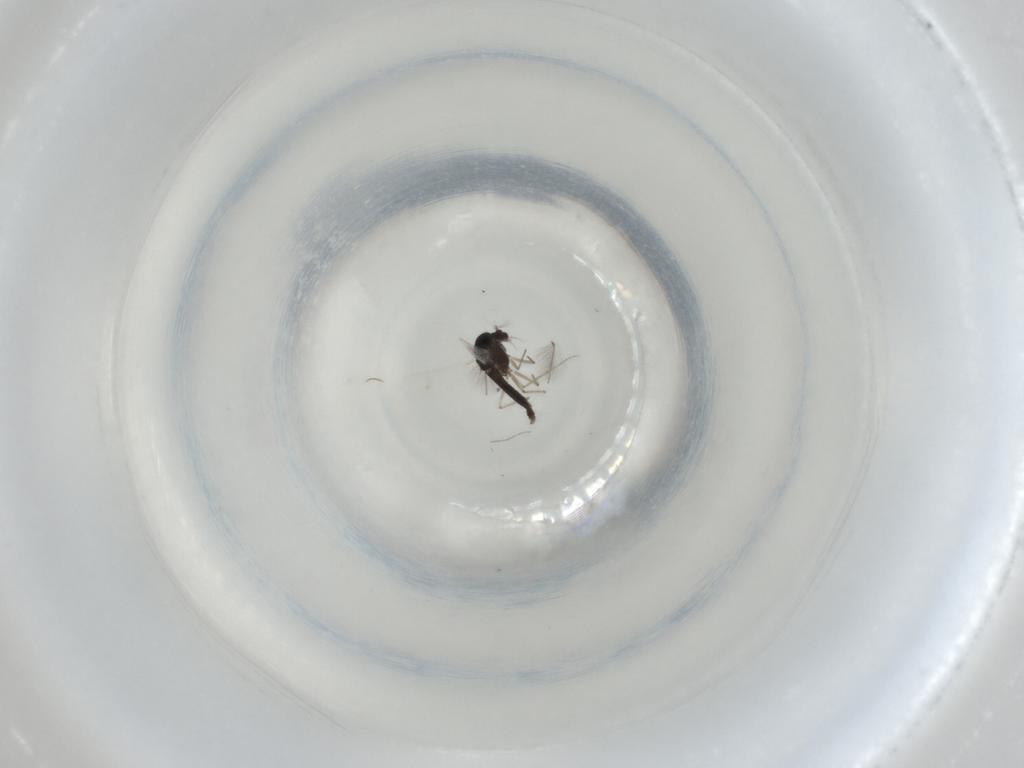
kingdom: Animalia
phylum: Arthropoda
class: Insecta
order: Diptera
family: Chironomidae
